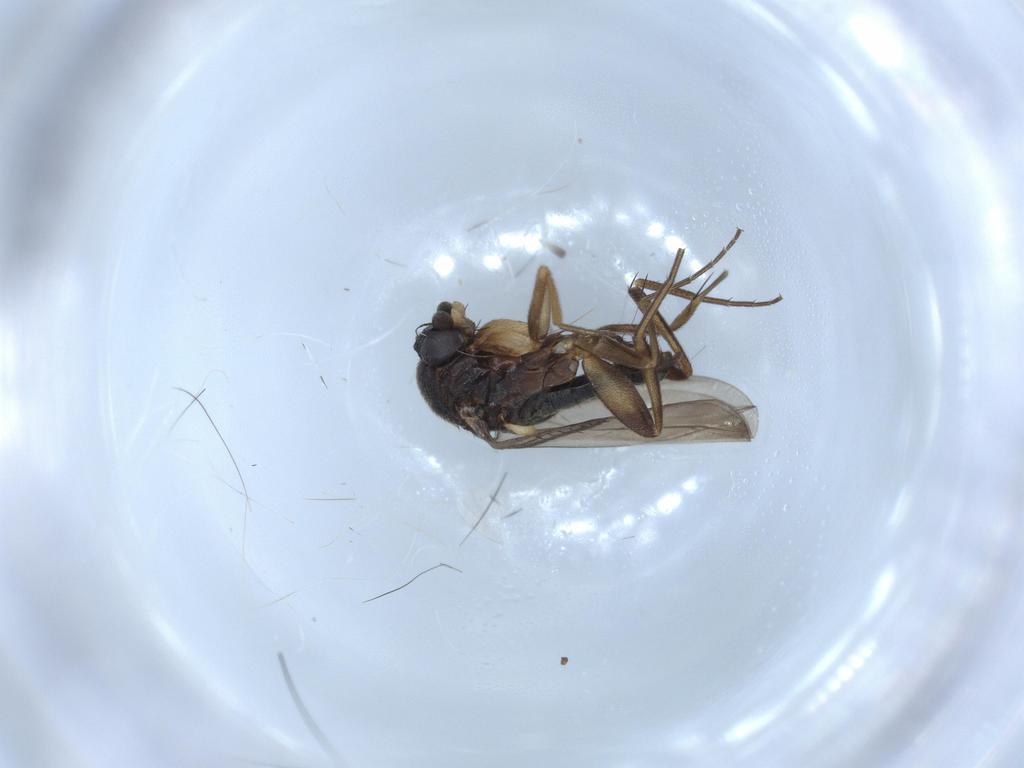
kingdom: Animalia
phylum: Arthropoda
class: Insecta
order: Diptera
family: Phoridae
